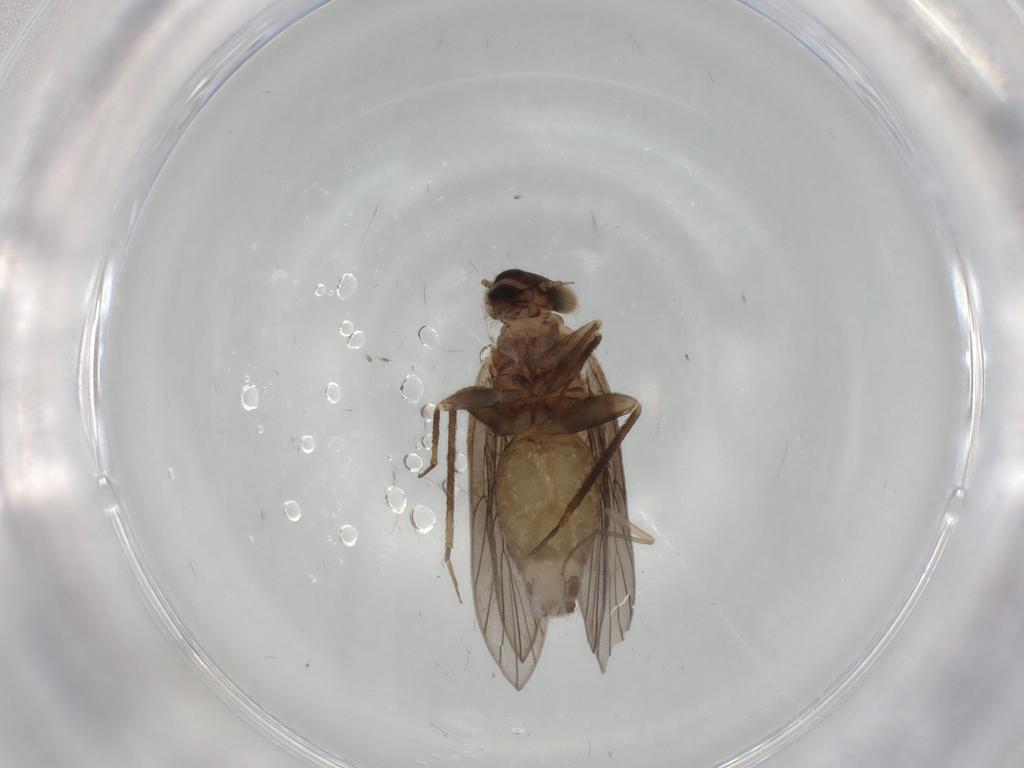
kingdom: Animalia
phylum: Arthropoda
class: Insecta
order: Psocodea
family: Lepidopsocidae
